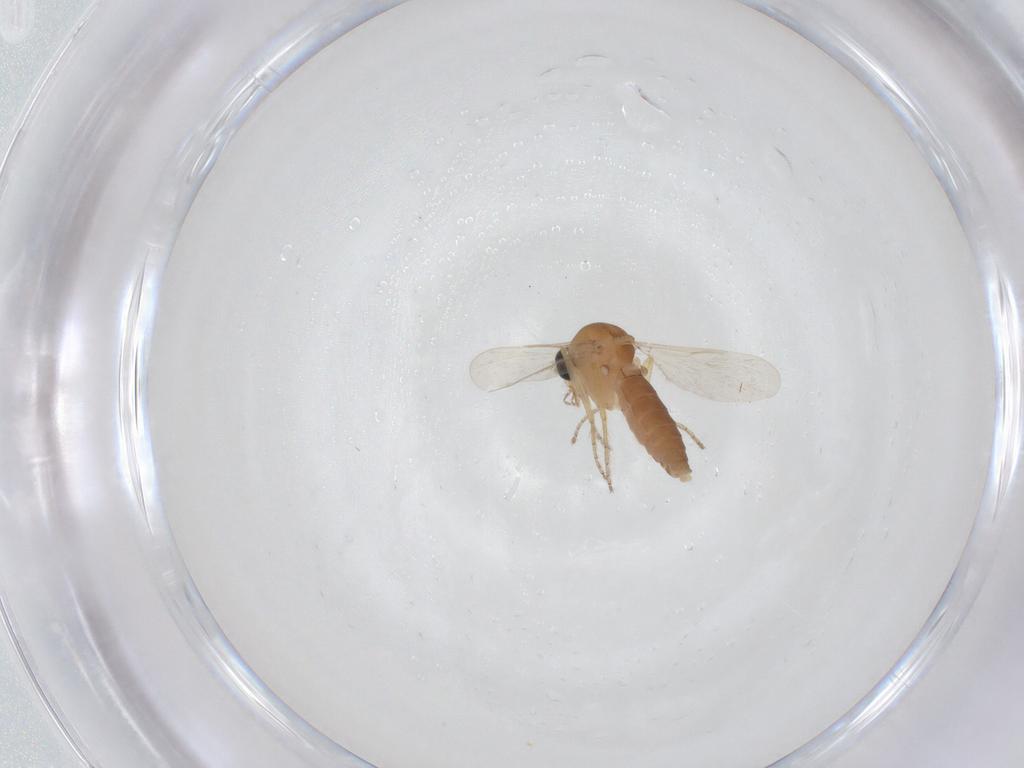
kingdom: Animalia
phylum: Arthropoda
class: Insecta
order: Diptera
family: Ceratopogonidae
